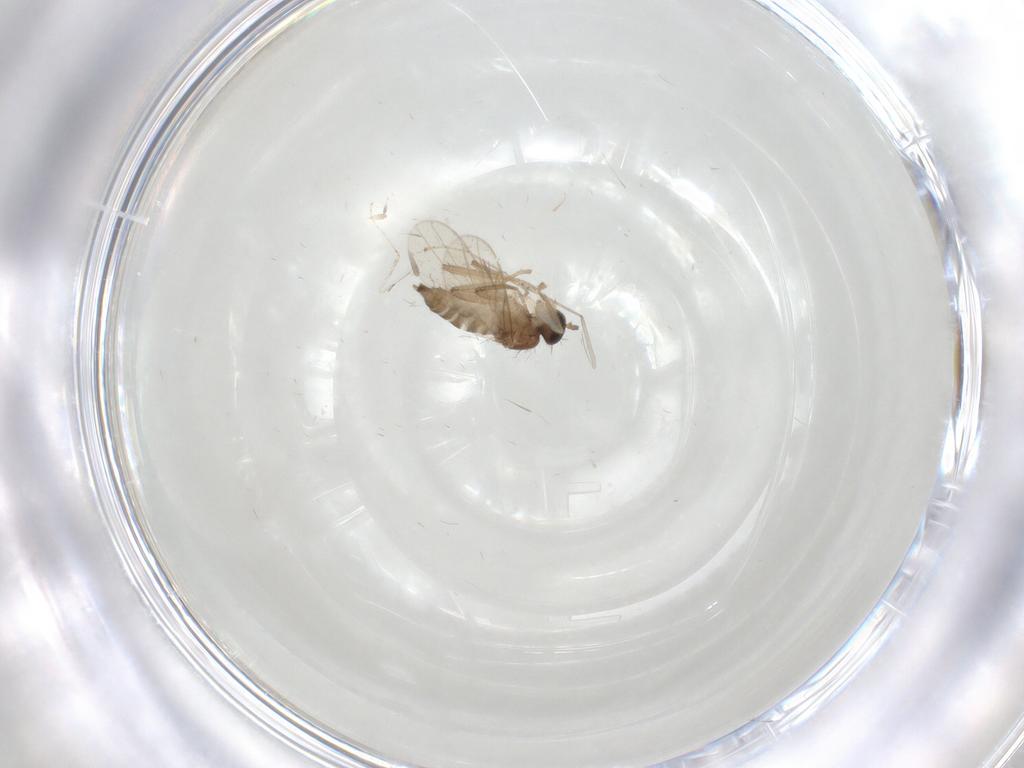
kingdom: Animalia
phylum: Arthropoda
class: Insecta
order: Diptera
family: Hybotidae
